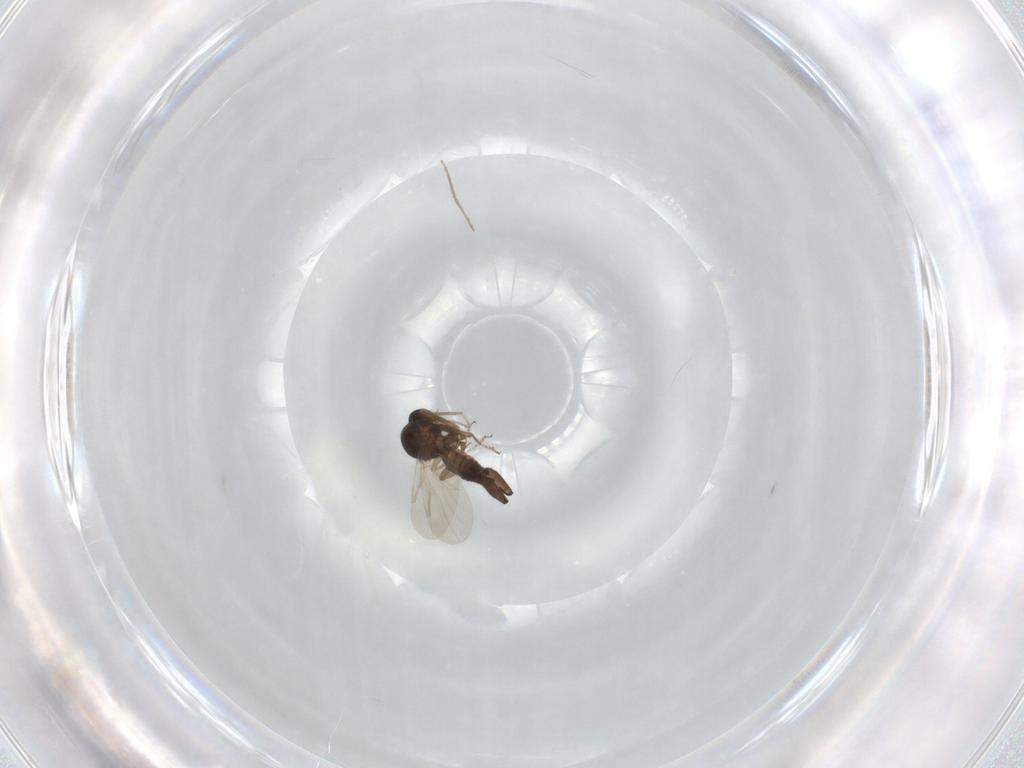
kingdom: Animalia
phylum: Arthropoda
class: Insecta
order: Diptera
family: Ceratopogonidae
